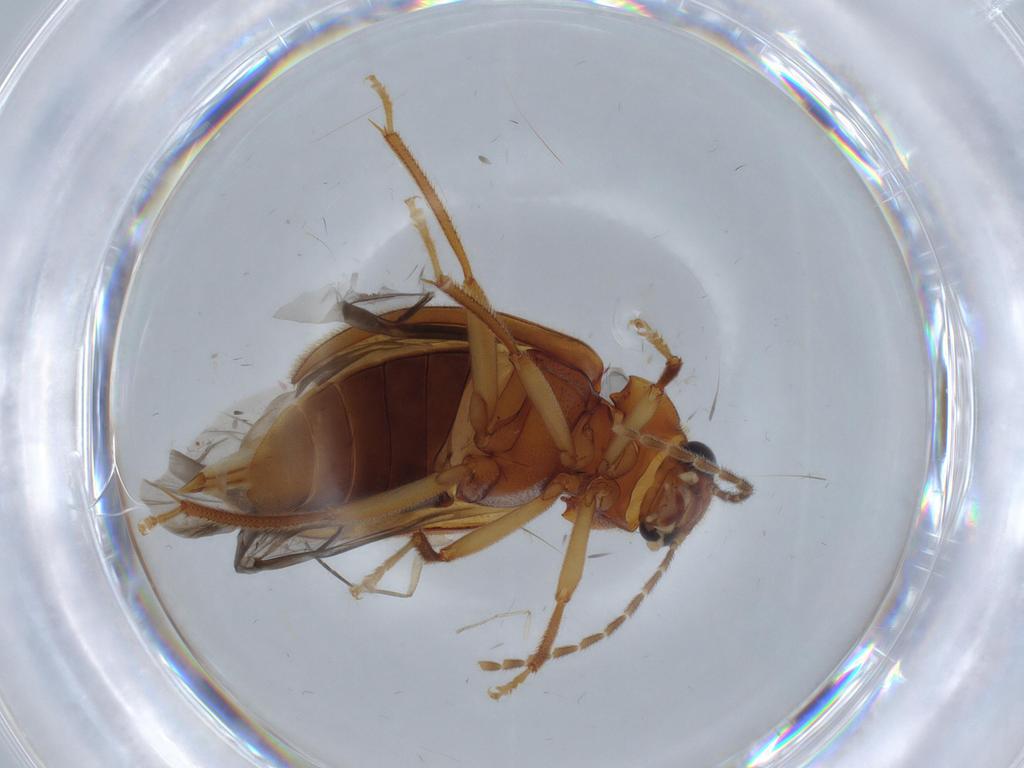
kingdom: Animalia
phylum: Arthropoda
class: Insecta
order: Coleoptera
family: Ptilodactylidae
